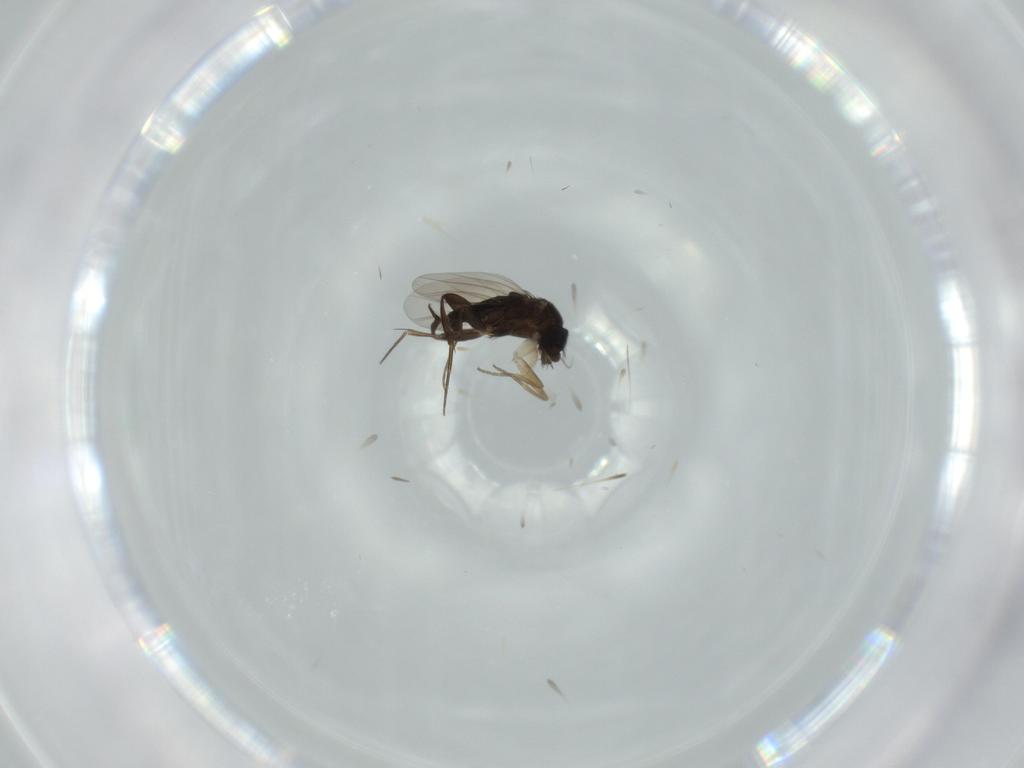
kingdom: Animalia
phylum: Arthropoda
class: Insecta
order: Diptera
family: Phoridae
